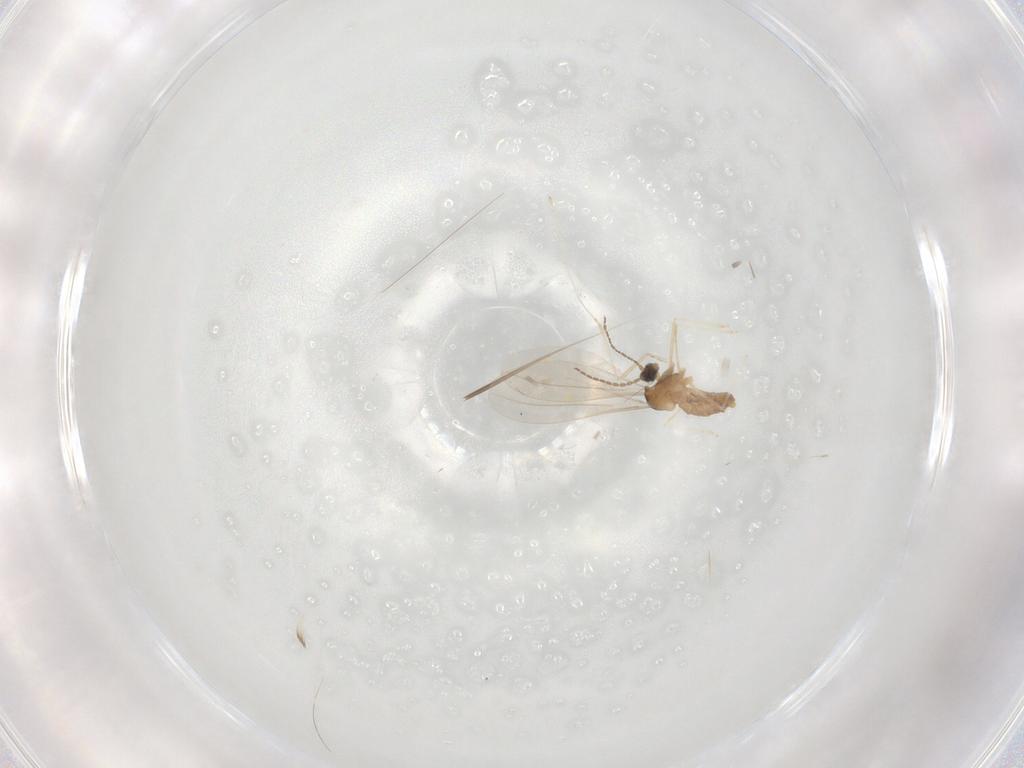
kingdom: Animalia
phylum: Arthropoda
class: Insecta
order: Diptera
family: Cecidomyiidae
